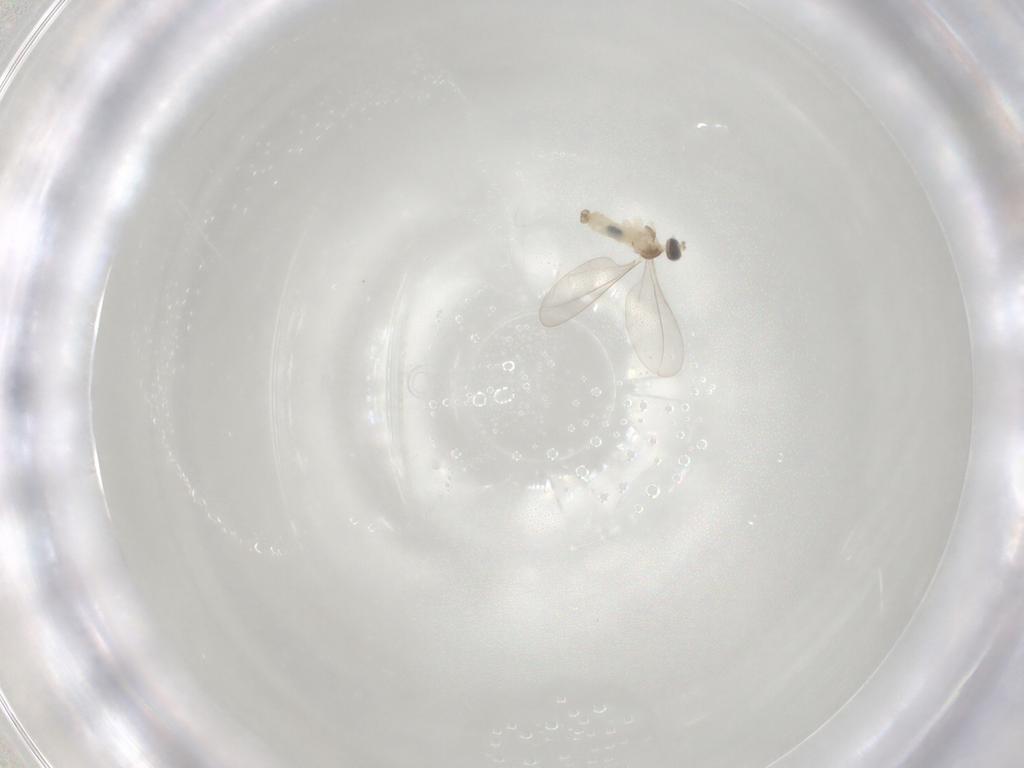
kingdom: Animalia
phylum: Arthropoda
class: Insecta
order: Diptera
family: Cecidomyiidae
